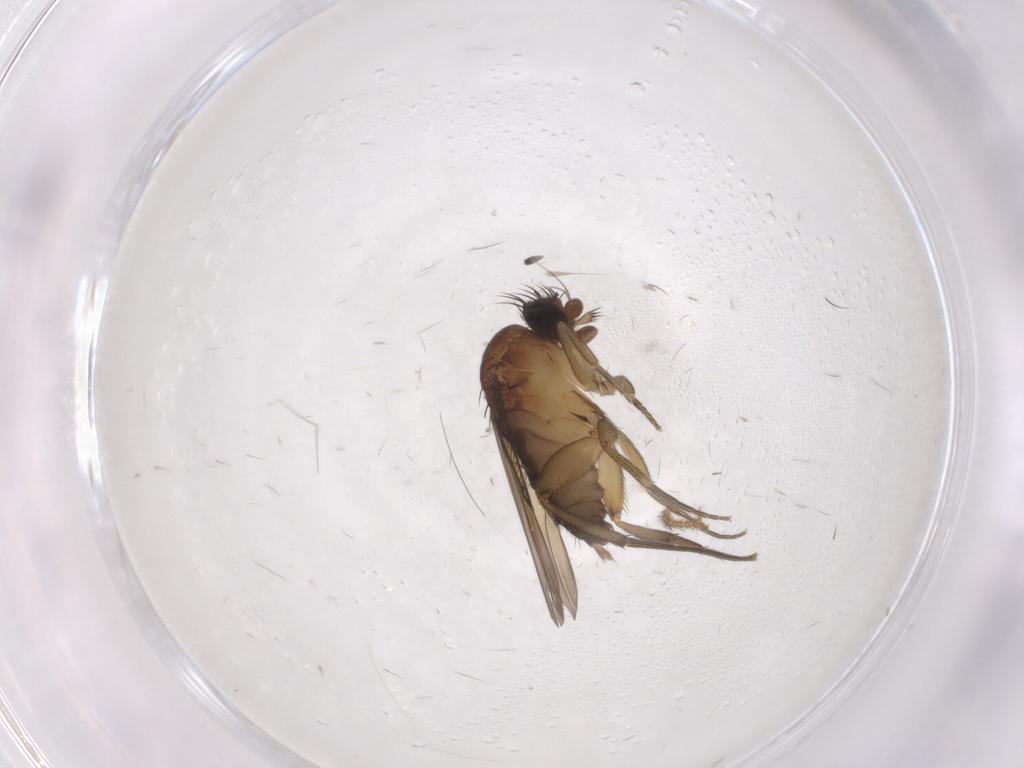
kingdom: Animalia
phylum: Arthropoda
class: Insecta
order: Diptera
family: Phoridae
